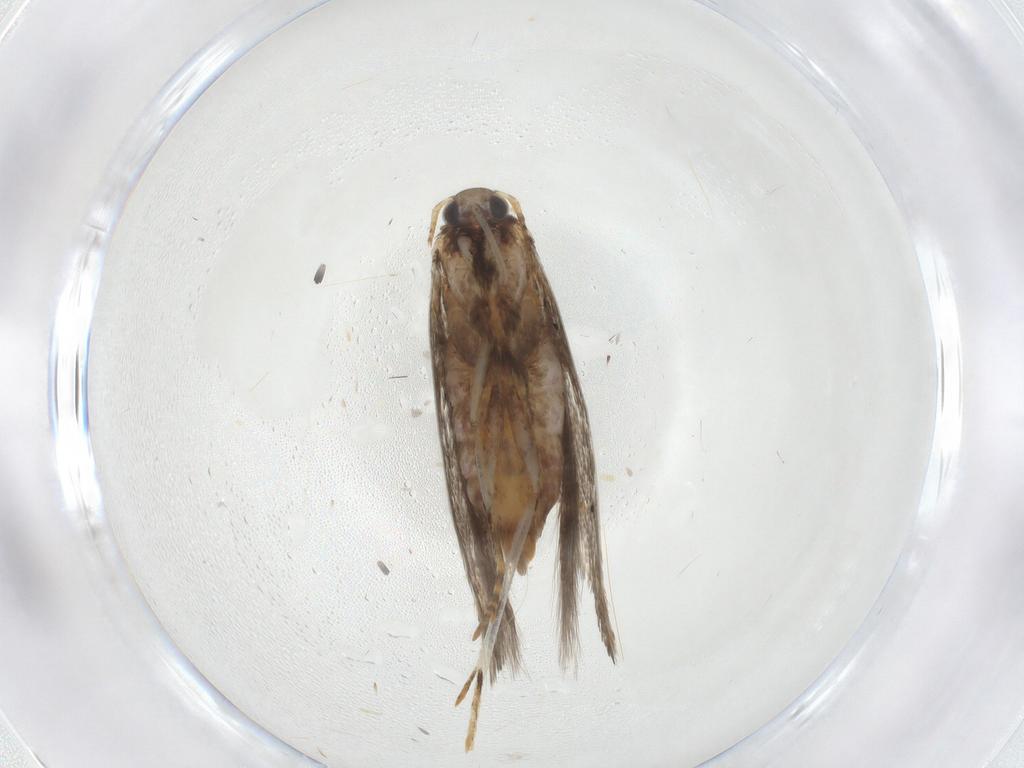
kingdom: Animalia
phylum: Arthropoda
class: Insecta
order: Lepidoptera
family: Elachistidae
